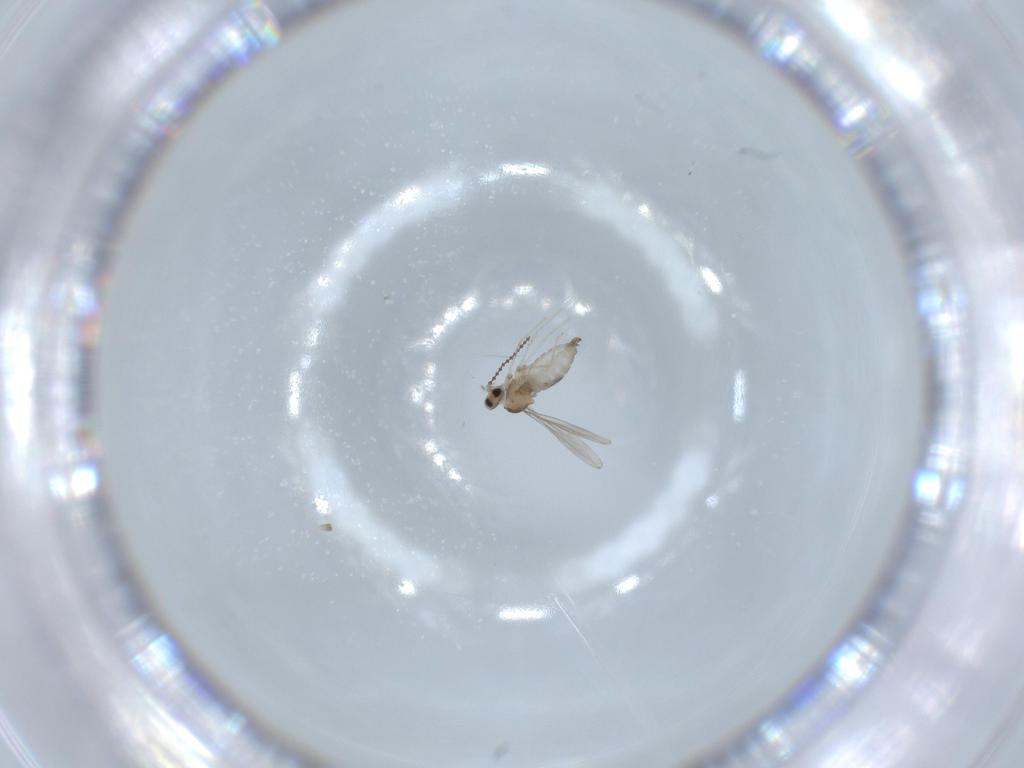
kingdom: Animalia
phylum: Arthropoda
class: Insecta
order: Diptera
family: Cecidomyiidae
